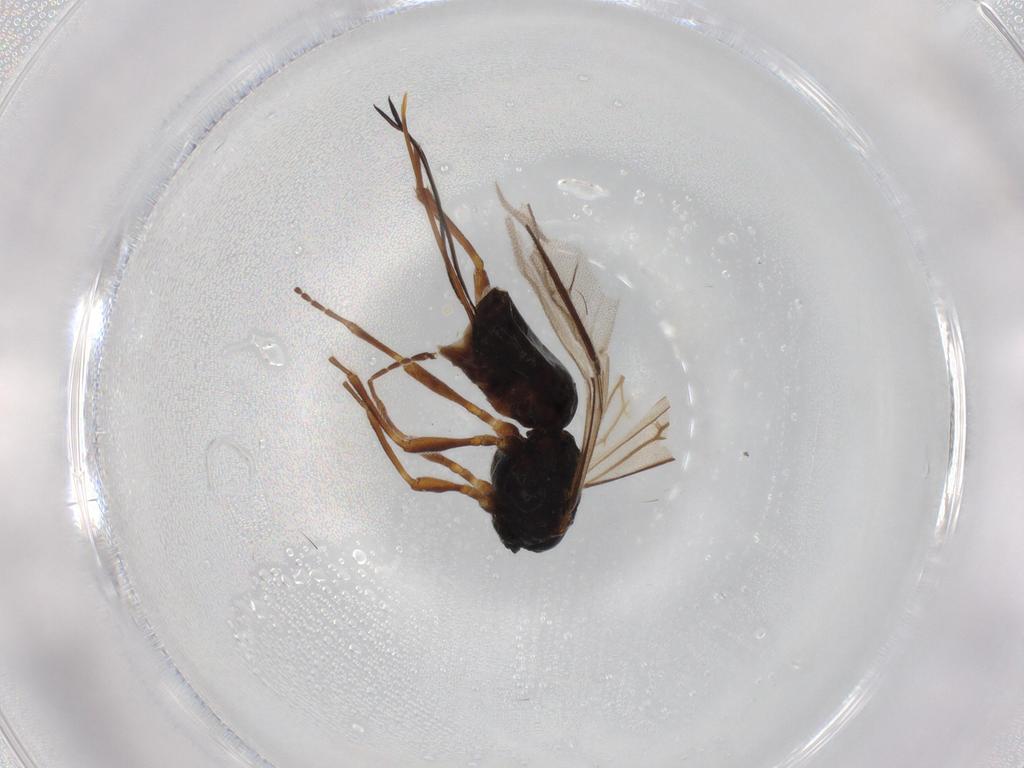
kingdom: Animalia
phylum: Arthropoda
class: Insecta
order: Hymenoptera
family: Braconidae
